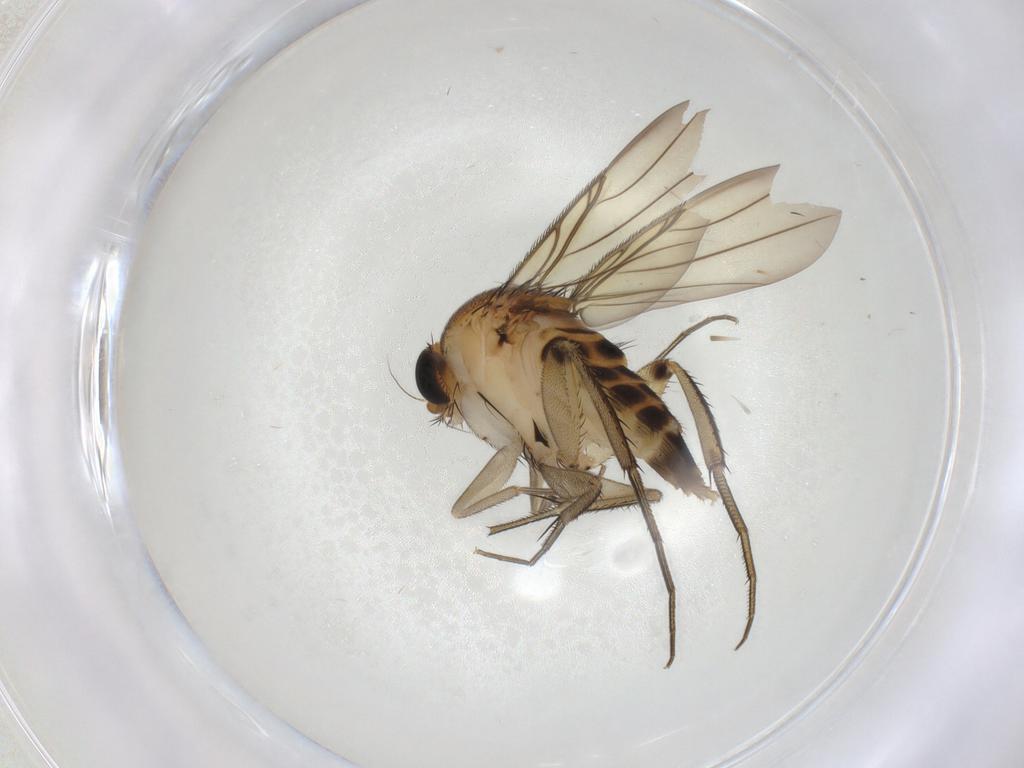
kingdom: Animalia
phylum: Arthropoda
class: Insecta
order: Diptera
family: Phoridae
